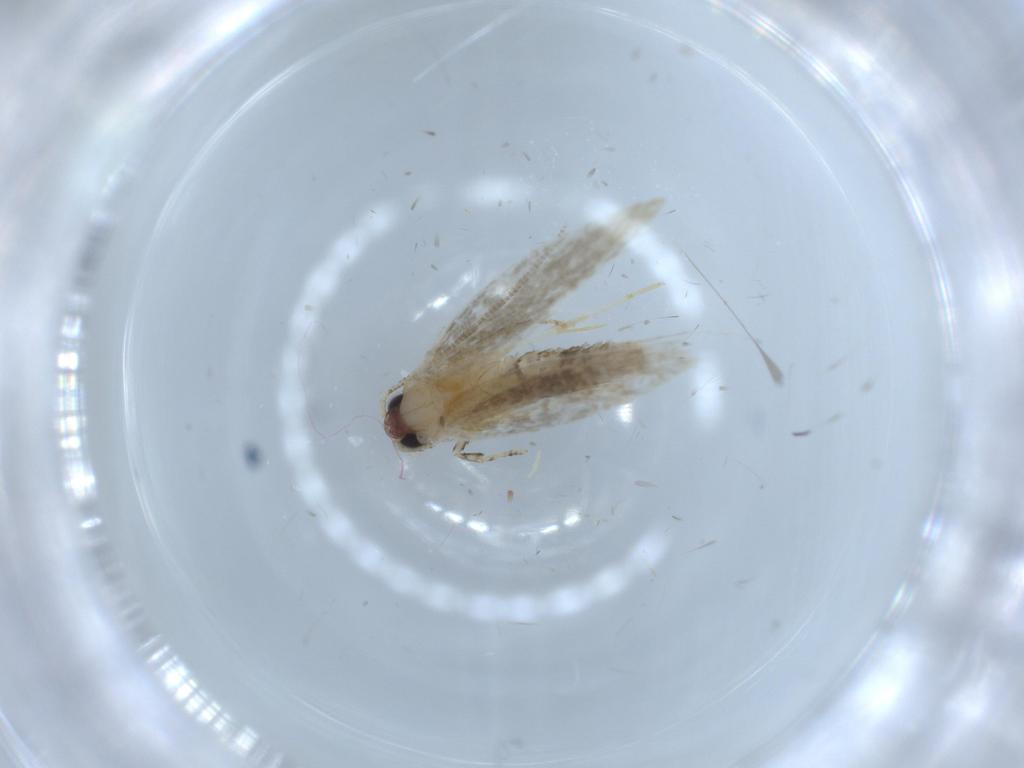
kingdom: Animalia
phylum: Arthropoda
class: Insecta
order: Lepidoptera
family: Tineidae
